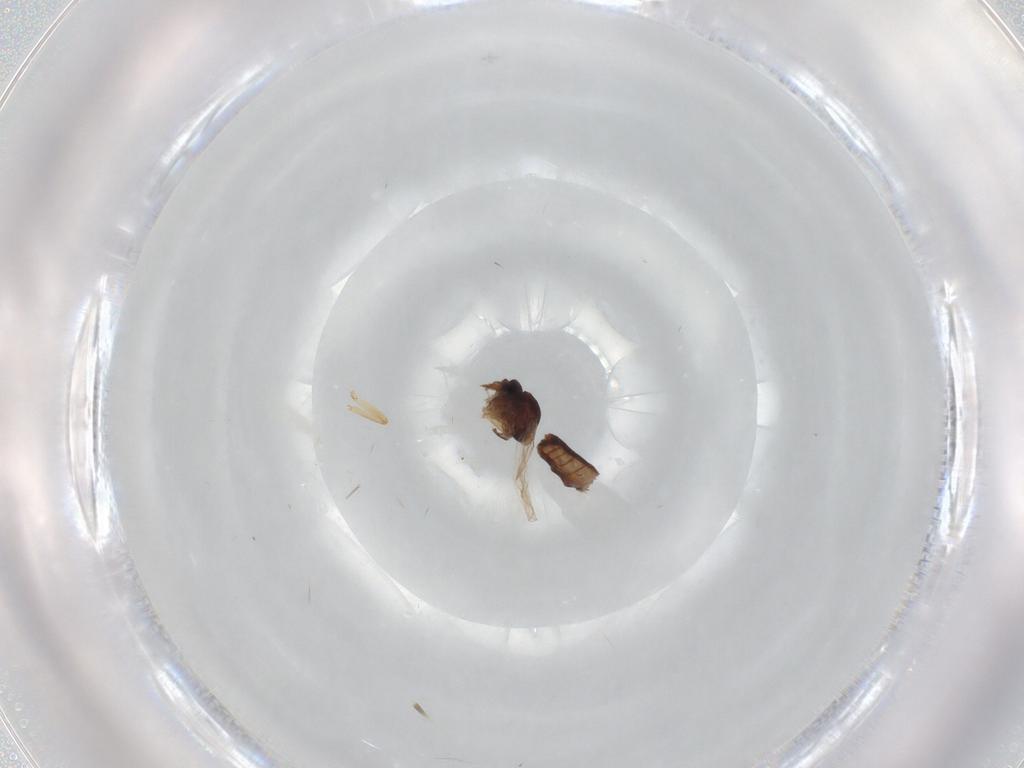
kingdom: Animalia
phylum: Arthropoda
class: Insecta
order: Diptera
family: Ceratopogonidae
